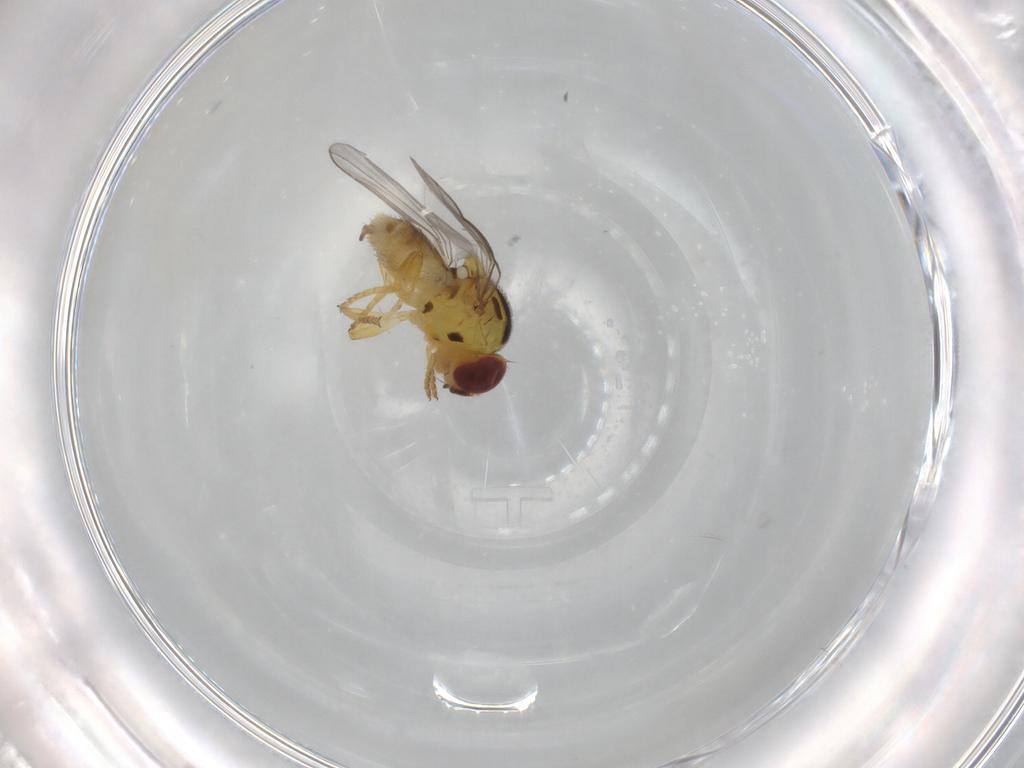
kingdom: Animalia
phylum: Arthropoda
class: Insecta
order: Diptera
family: Chloropidae
